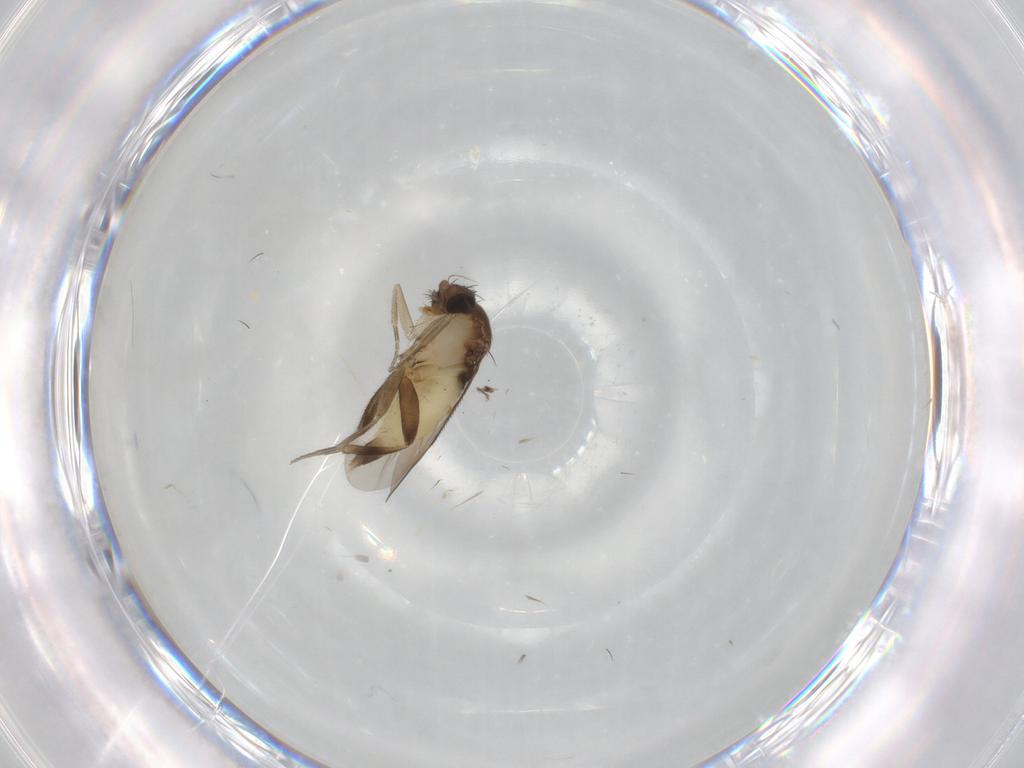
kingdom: Animalia
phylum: Arthropoda
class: Insecta
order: Diptera
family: Phoridae
